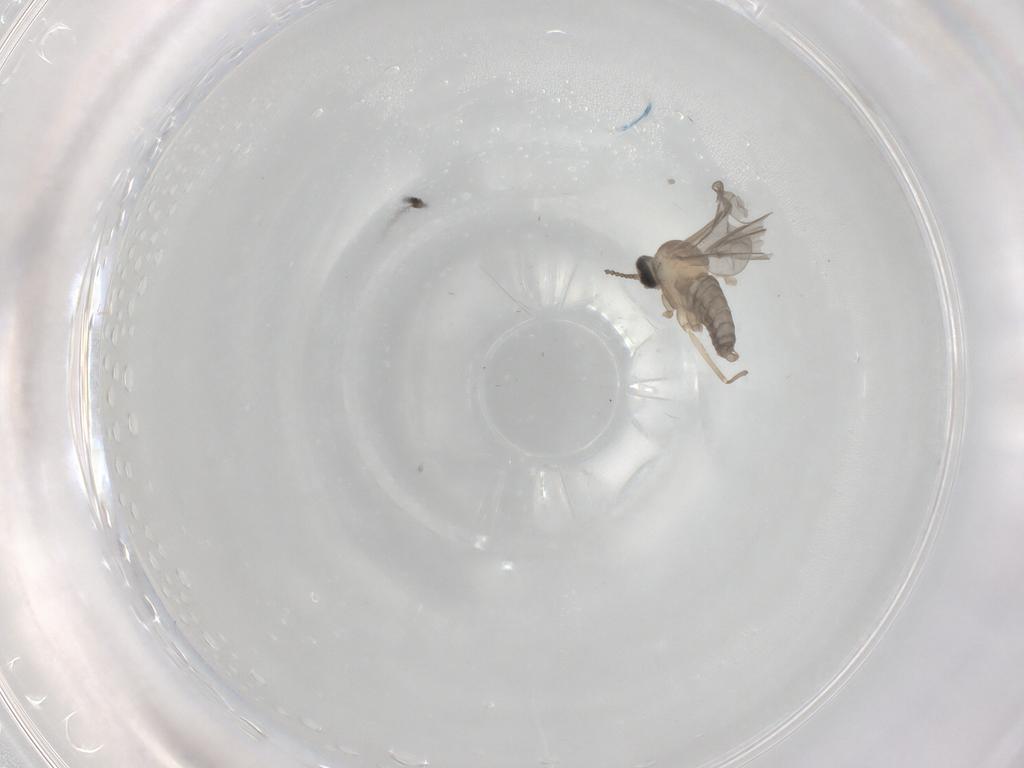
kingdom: Animalia
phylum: Arthropoda
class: Insecta
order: Diptera
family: Cecidomyiidae
